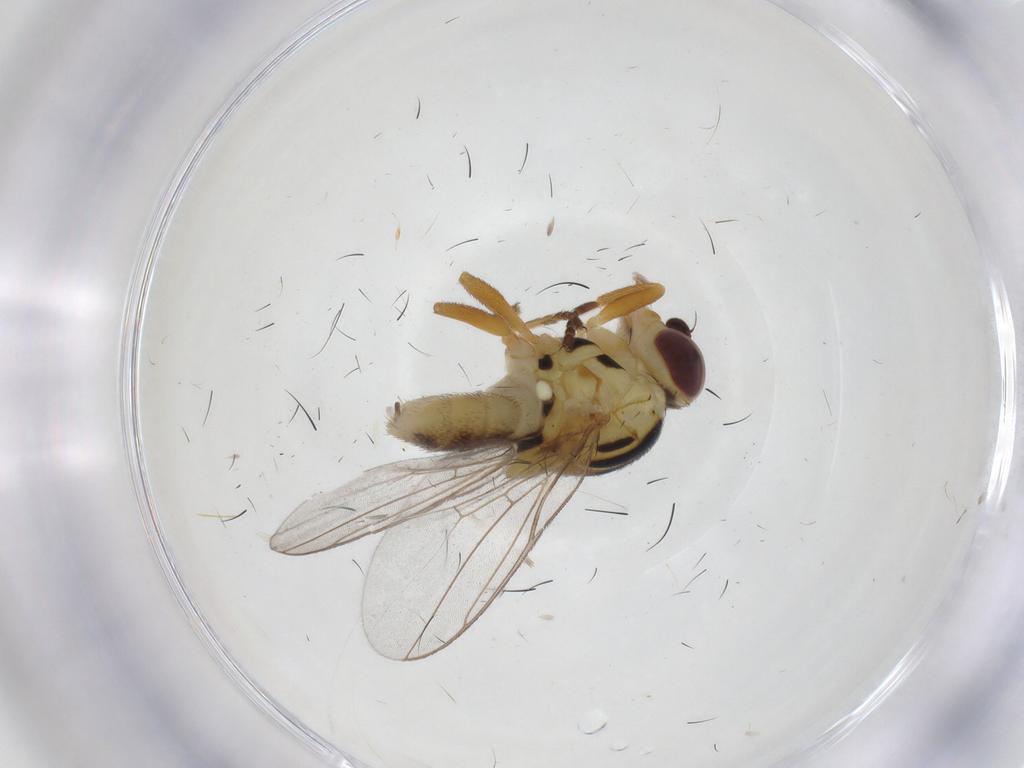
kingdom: Animalia
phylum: Arthropoda
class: Insecta
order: Diptera
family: Chloropidae
